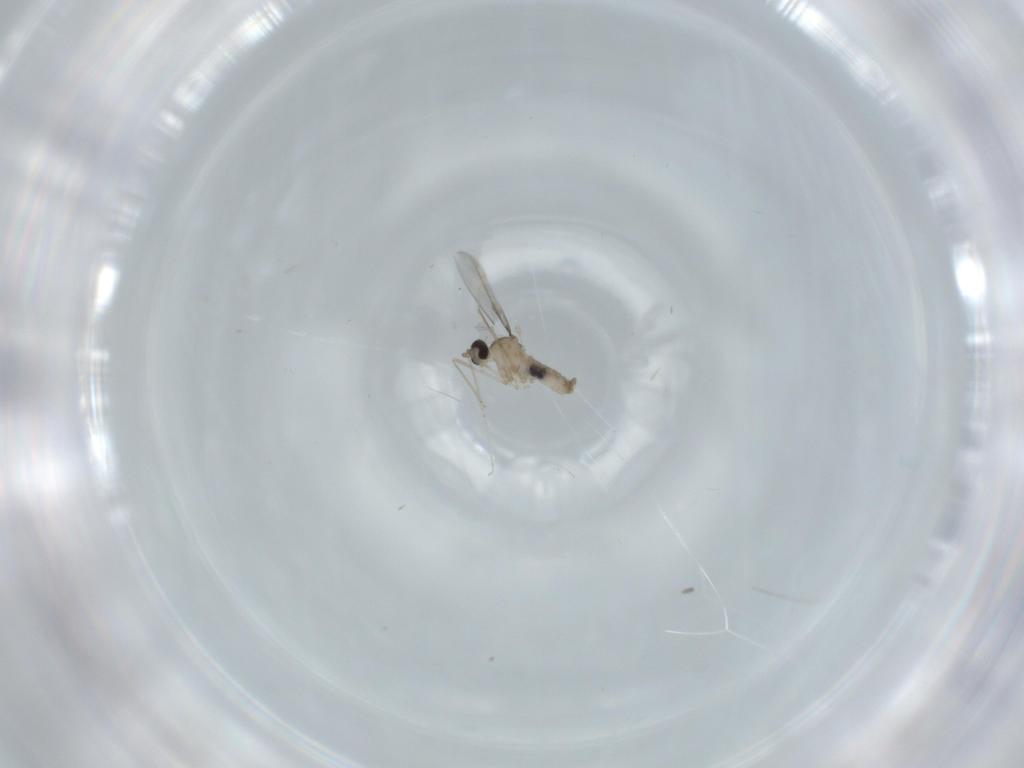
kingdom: Animalia
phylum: Arthropoda
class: Insecta
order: Diptera
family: Cecidomyiidae
